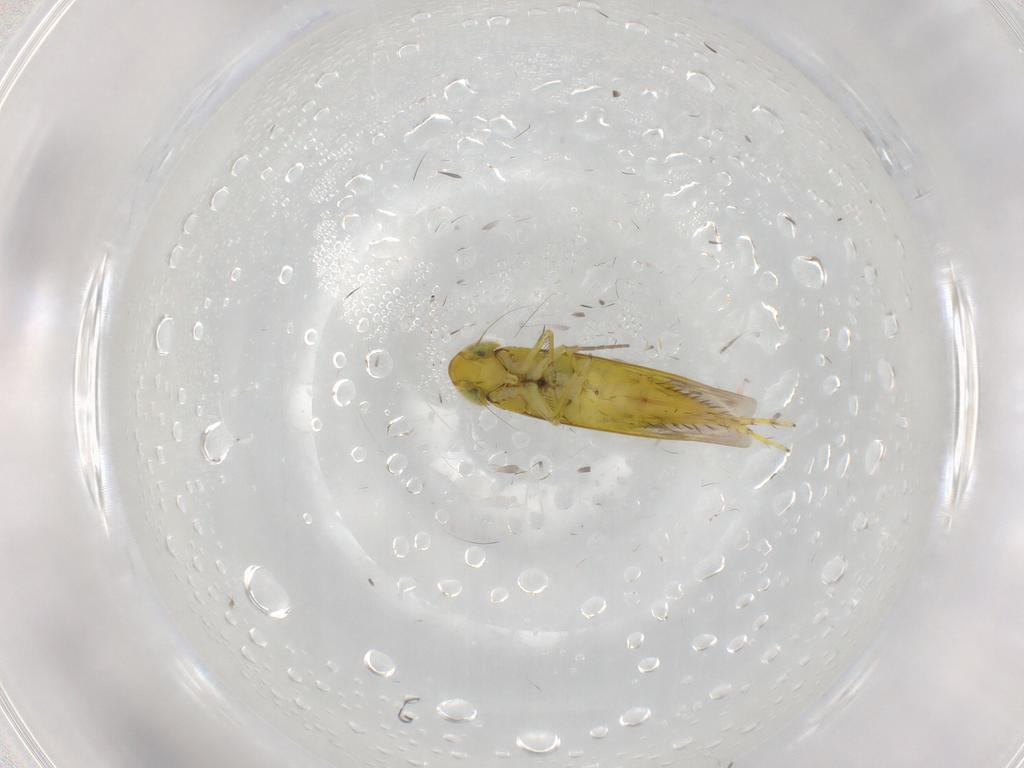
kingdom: Animalia
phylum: Arthropoda
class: Insecta
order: Hemiptera
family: Cicadellidae
